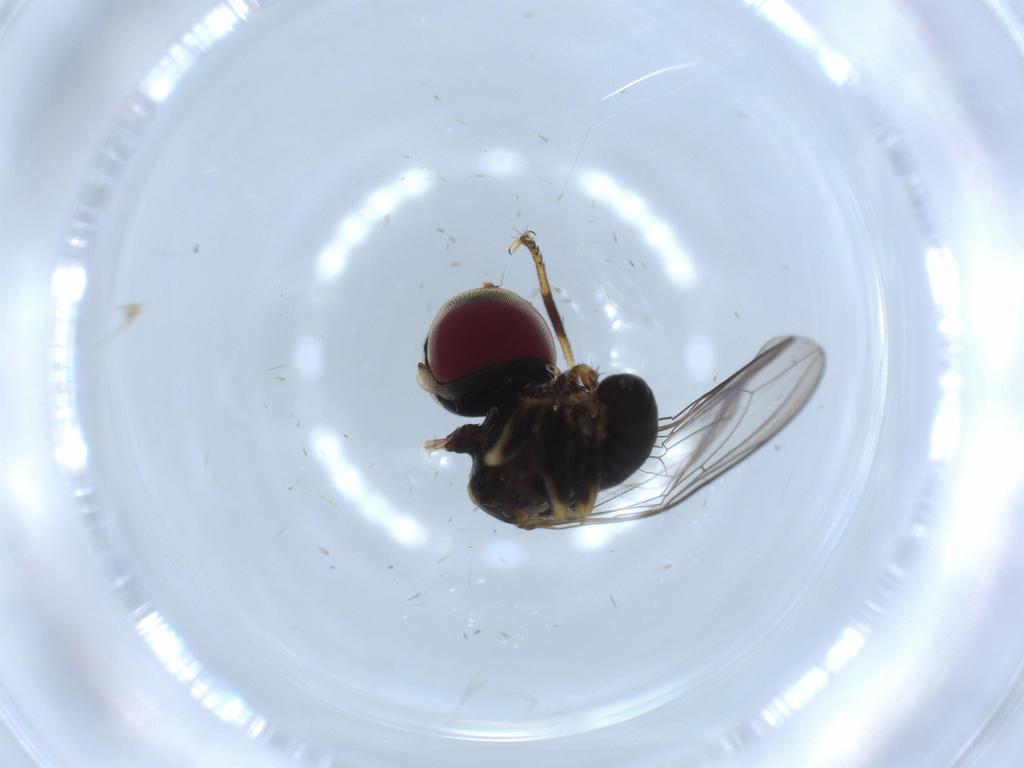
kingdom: Animalia
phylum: Arthropoda
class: Insecta
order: Diptera
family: Pipunculidae
